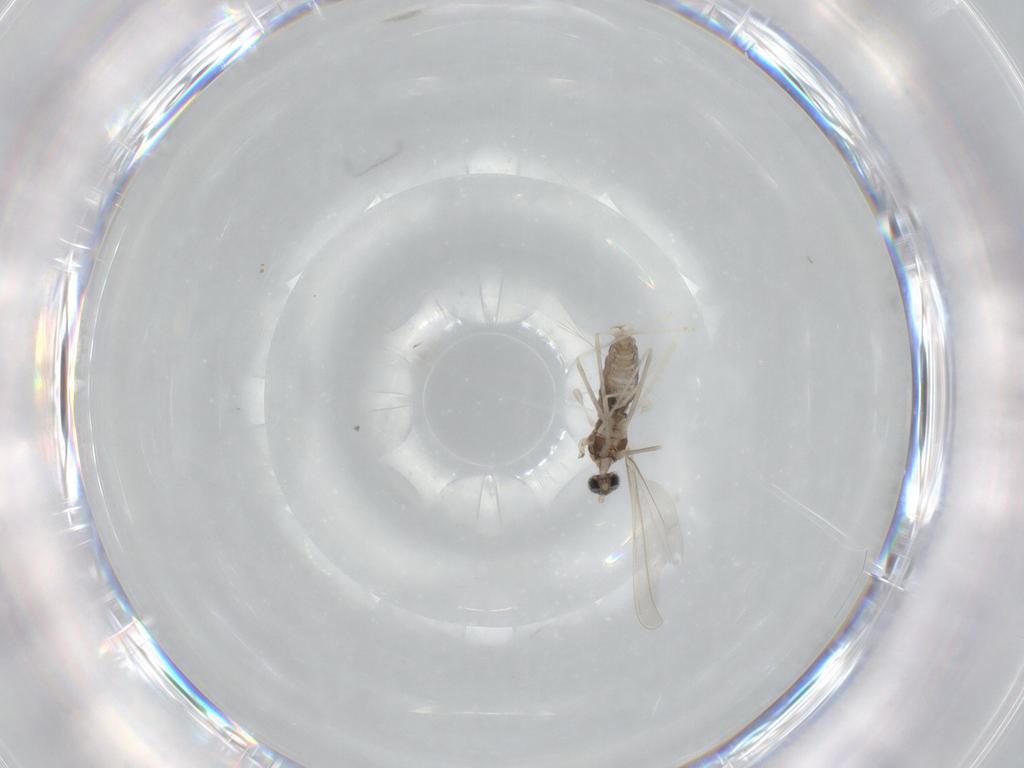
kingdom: Animalia
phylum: Arthropoda
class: Insecta
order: Diptera
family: Cecidomyiidae
